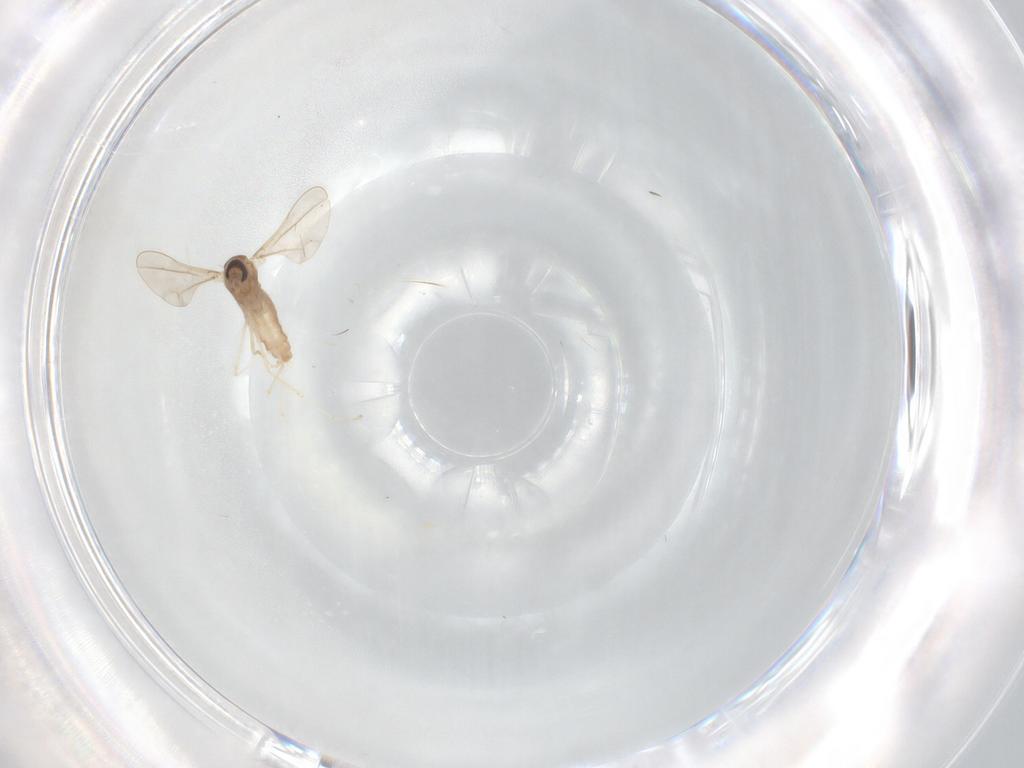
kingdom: Animalia
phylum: Arthropoda
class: Insecta
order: Diptera
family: Cecidomyiidae
